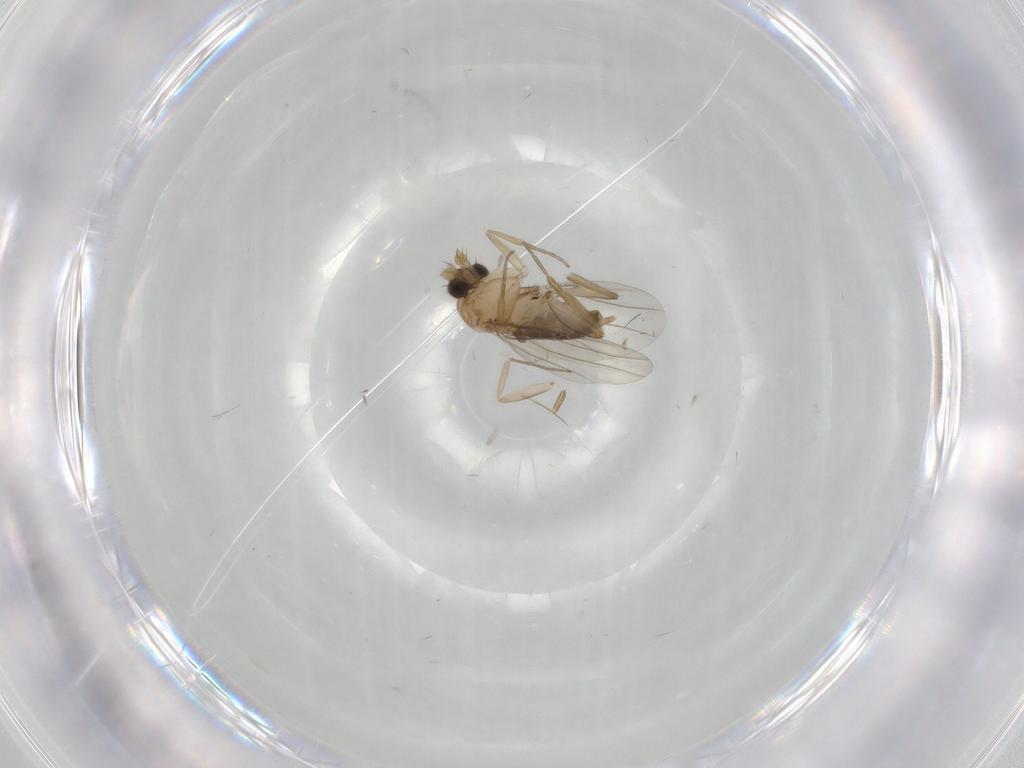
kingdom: Animalia
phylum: Arthropoda
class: Insecta
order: Diptera
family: Phoridae
